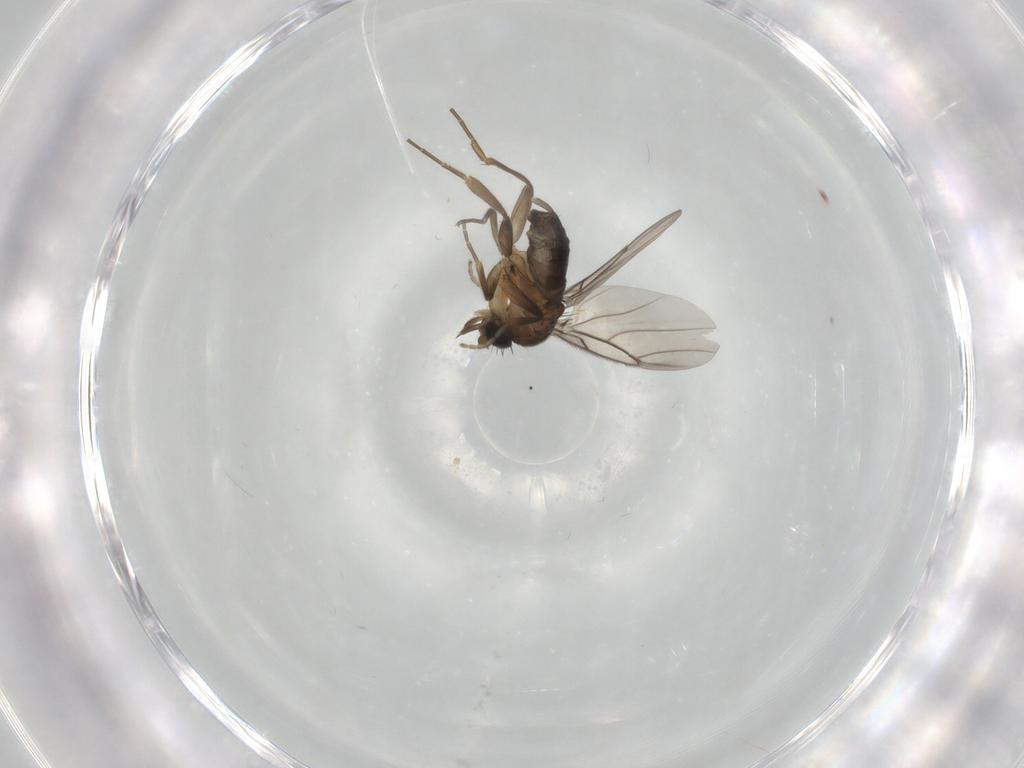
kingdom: Animalia
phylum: Arthropoda
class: Insecta
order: Diptera
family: Phoridae
